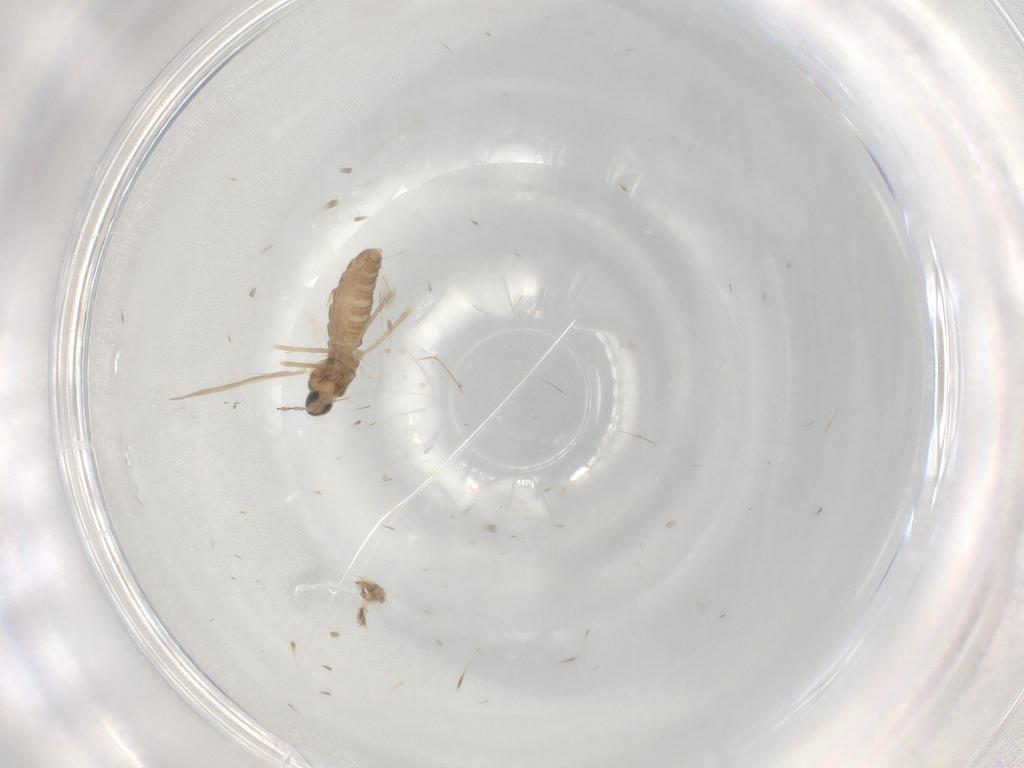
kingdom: Animalia
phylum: Arthropoda
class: Insecta
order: Diptera
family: Cecidomyiidae
